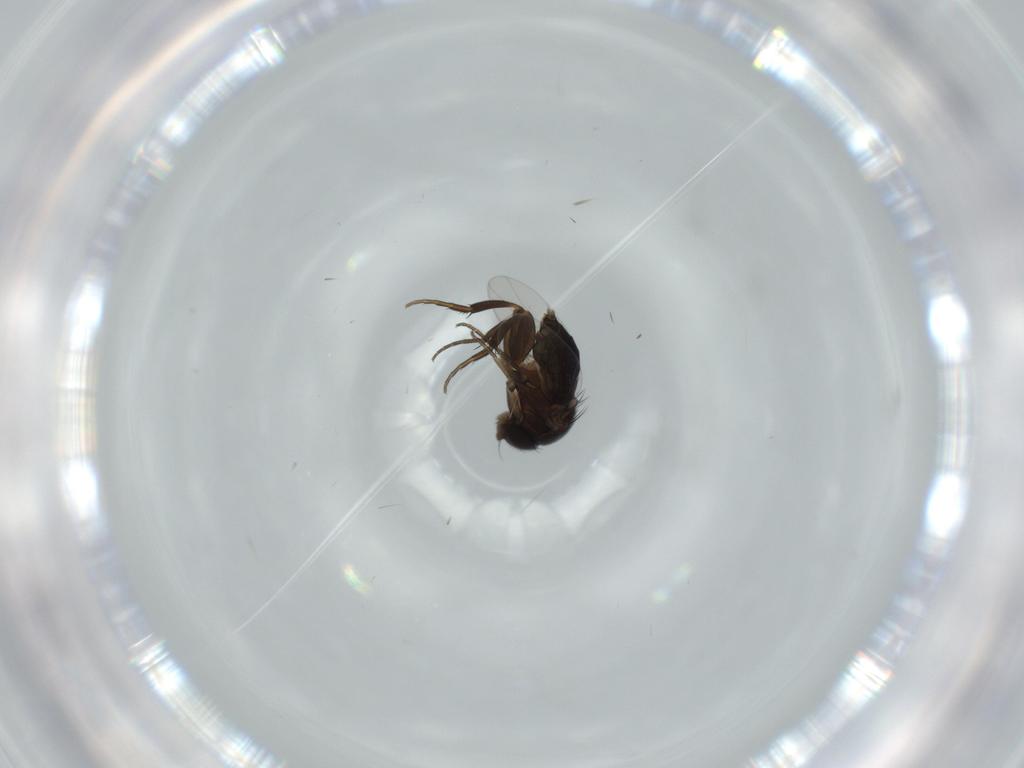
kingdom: Animalia
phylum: Arthropoda
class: Insecta
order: Diptera
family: Phoridae
